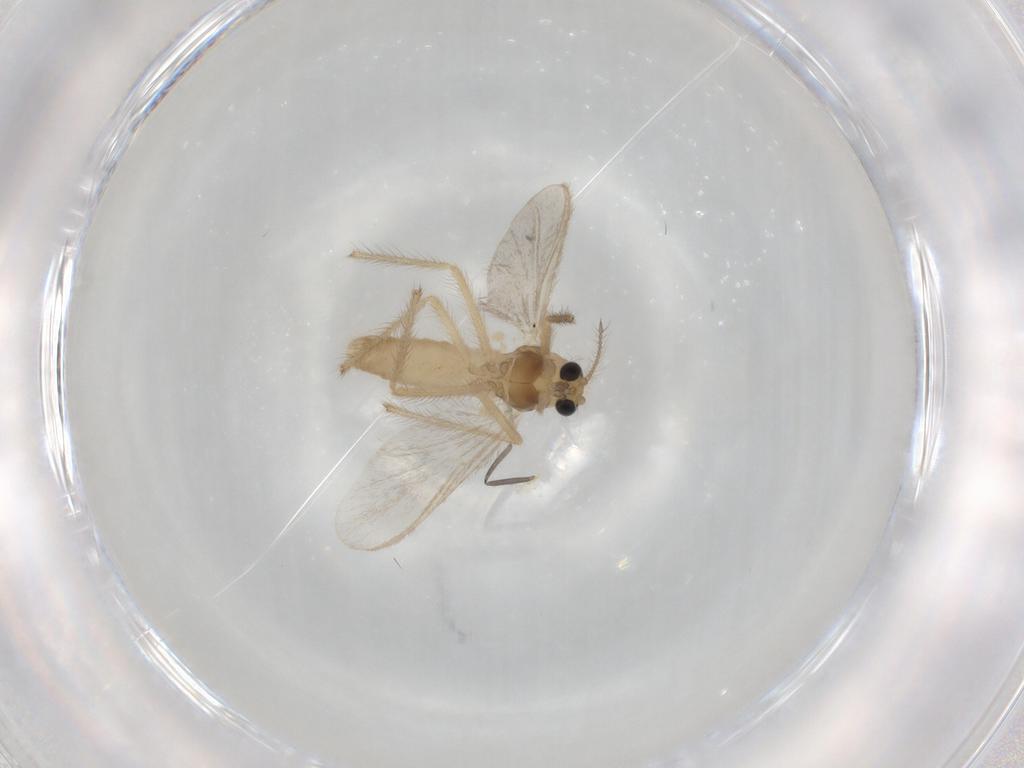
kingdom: Animalia
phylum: Arthropoda
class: Insecta
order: Diptera
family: Chironomidae
